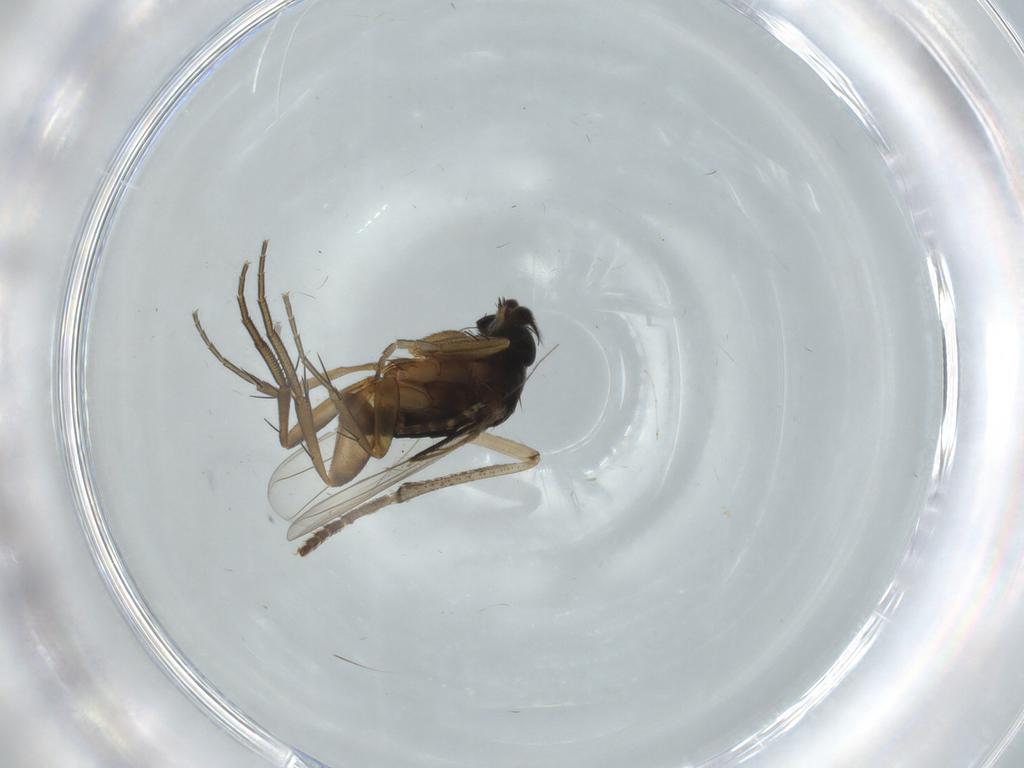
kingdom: Animalia
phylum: Arthropoda
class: Insecta
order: Diptera
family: Phoridae
